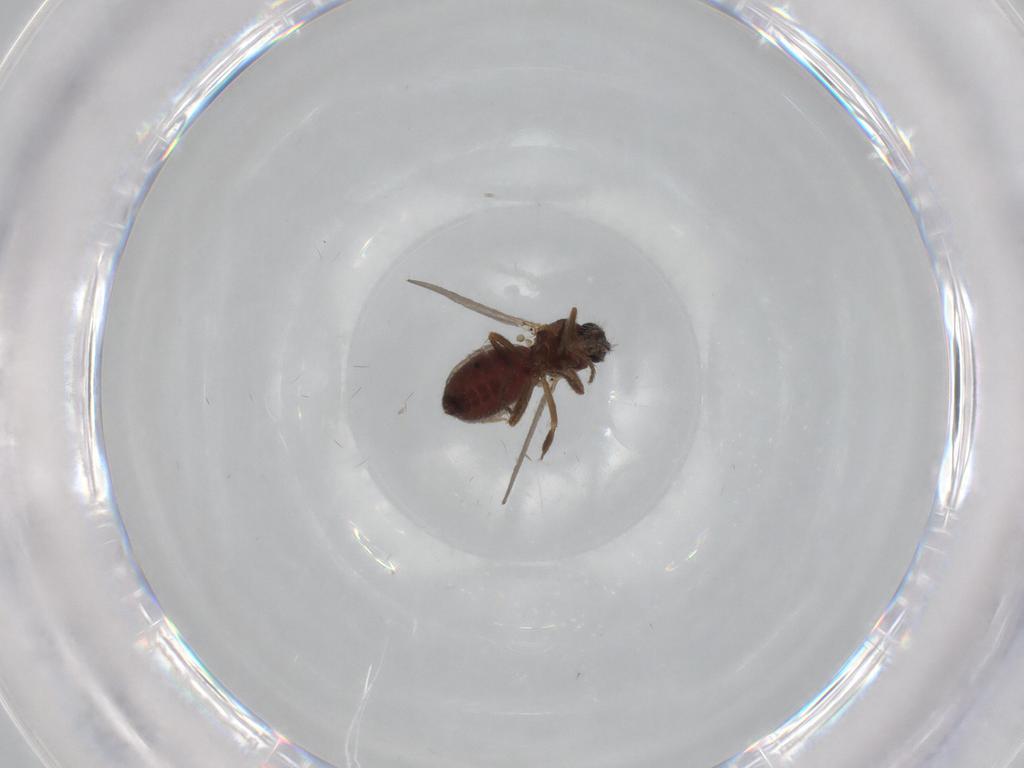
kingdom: Animalia
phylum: Arthropoda
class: Insecta
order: Diptera
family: Ceratopogonidae
